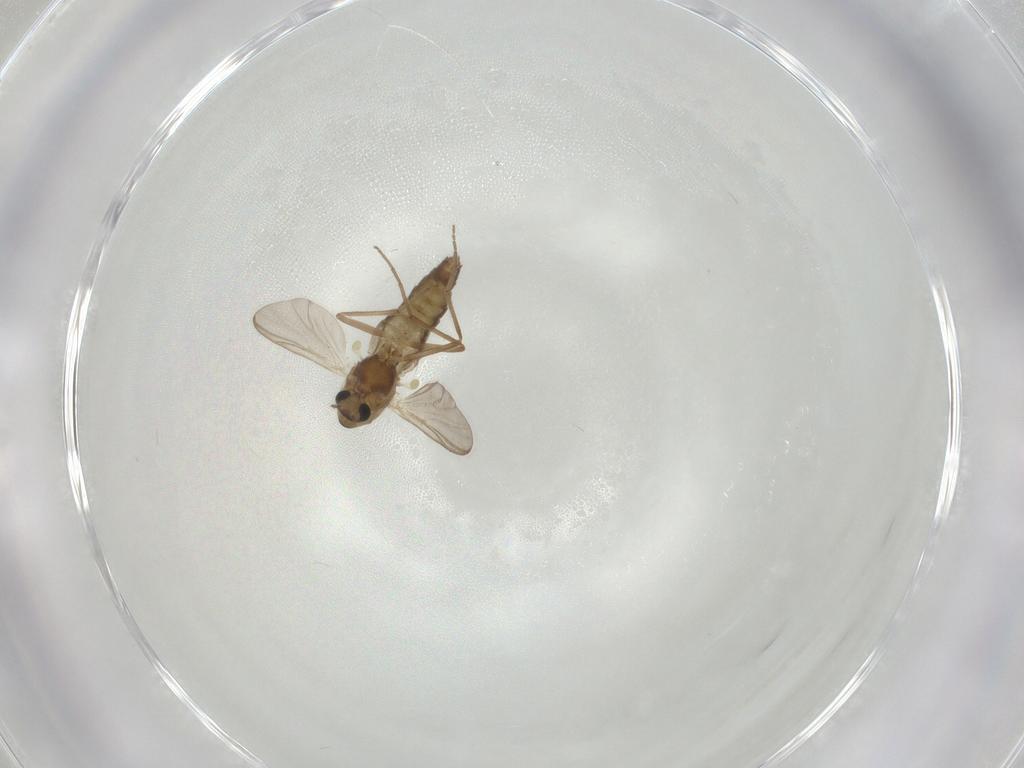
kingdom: Animalia
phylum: Arthropoda
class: Insecta
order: Diptera
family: Chironomidae
